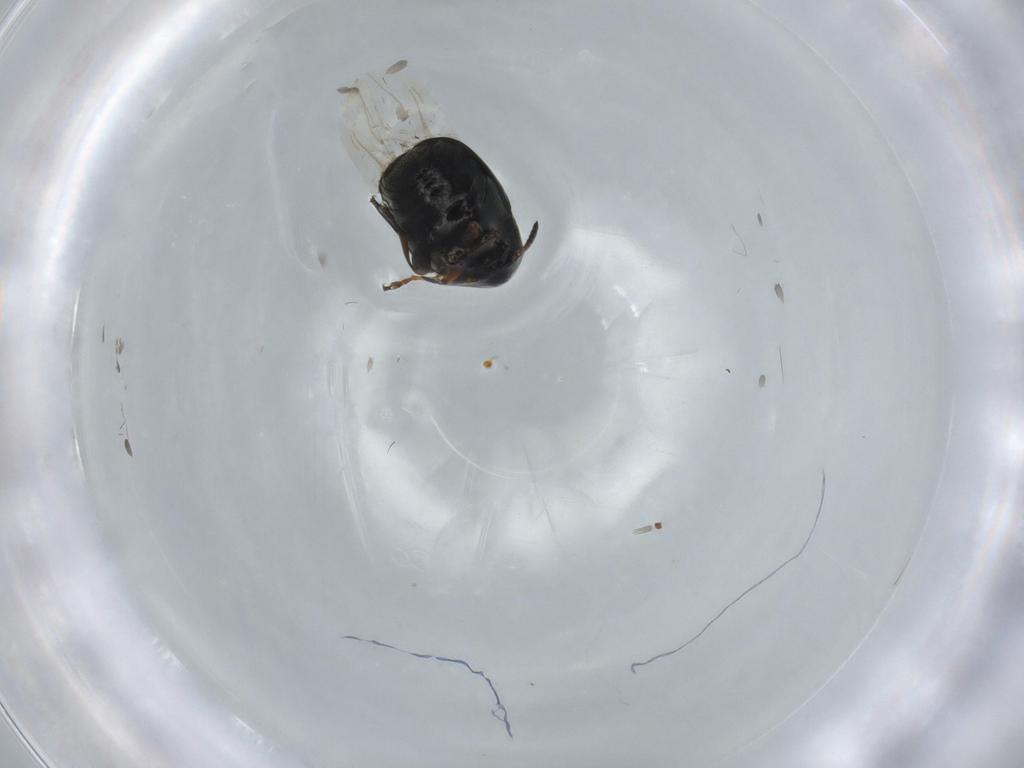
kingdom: Animalia
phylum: Arthropoda
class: Insecta
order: Coleoptera
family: Chrysomelidae
